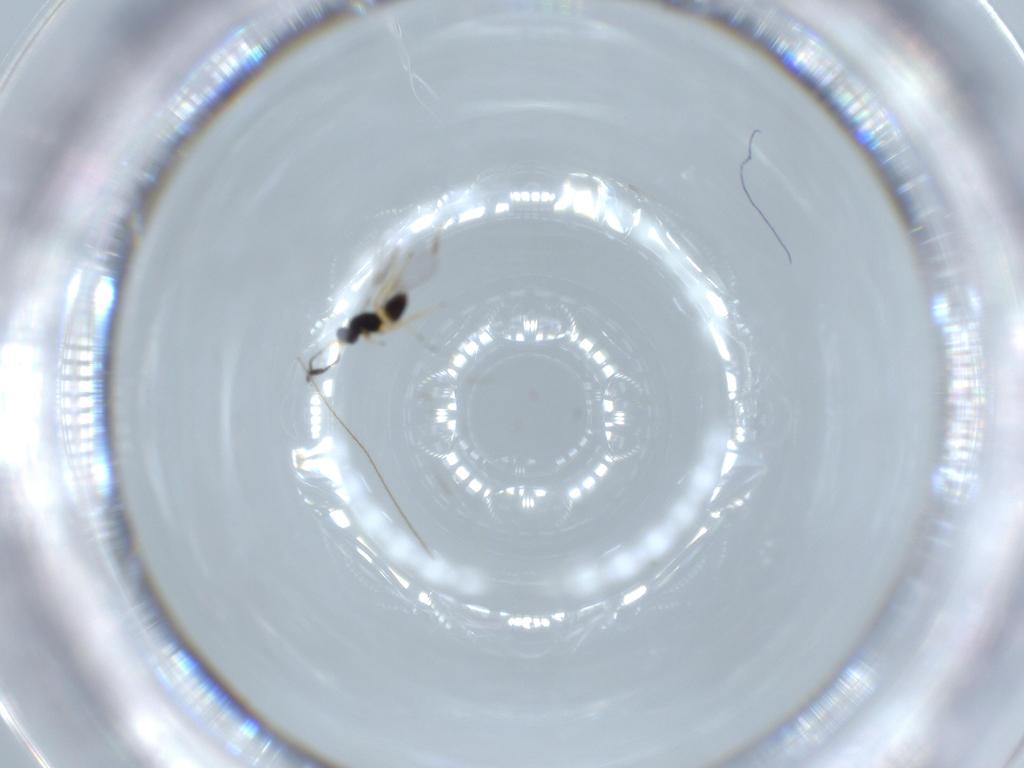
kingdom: Animalia
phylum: Arthropoda
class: Insecta
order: Hymenoptera
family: Mymaridae
